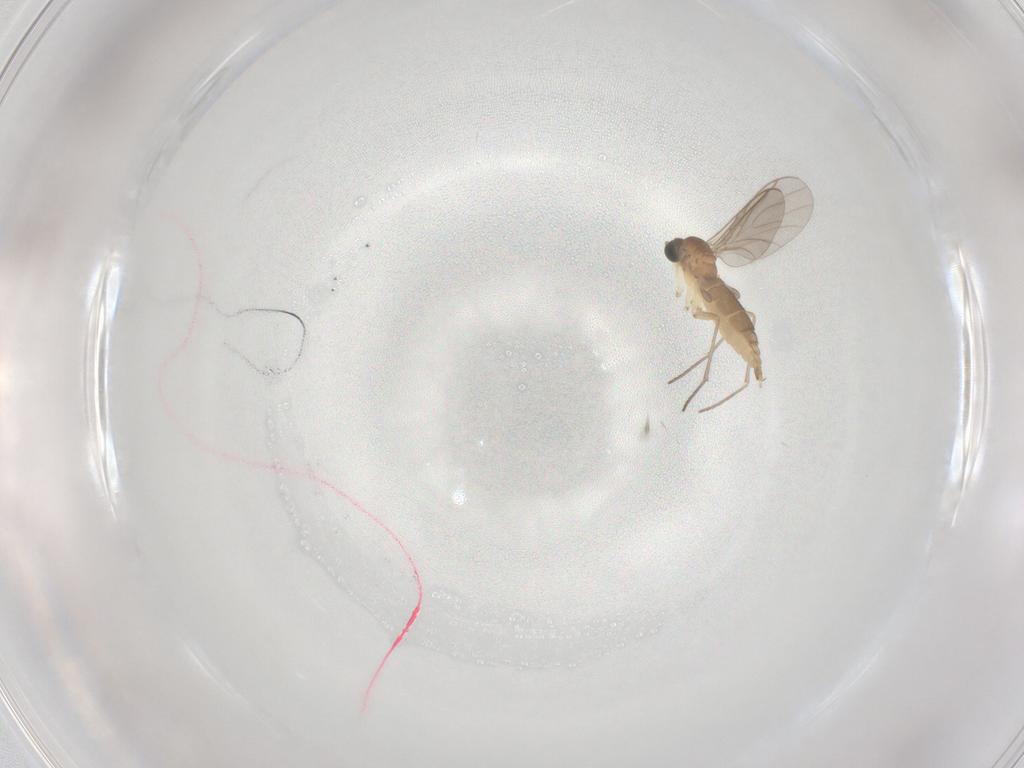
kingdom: Animalia
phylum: Arthropoda
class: Insecta
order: Diptera
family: Sciaridae
